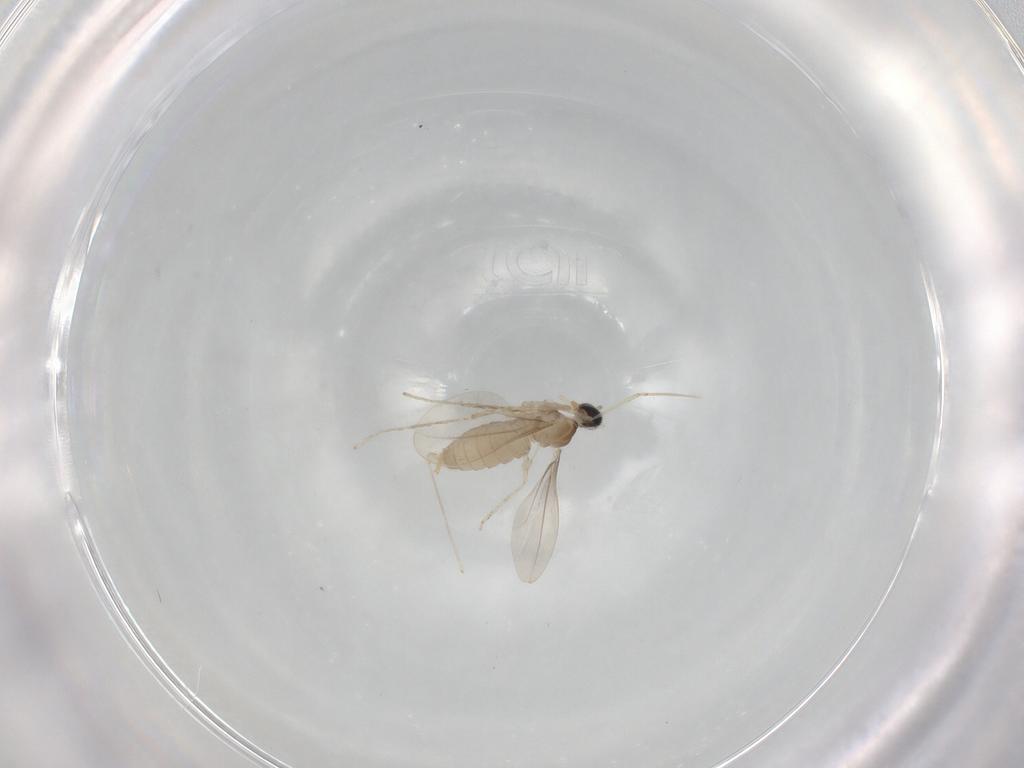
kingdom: Animalia
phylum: Arthropoda
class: Insecta
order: Diptera
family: Cecidomyiidae
